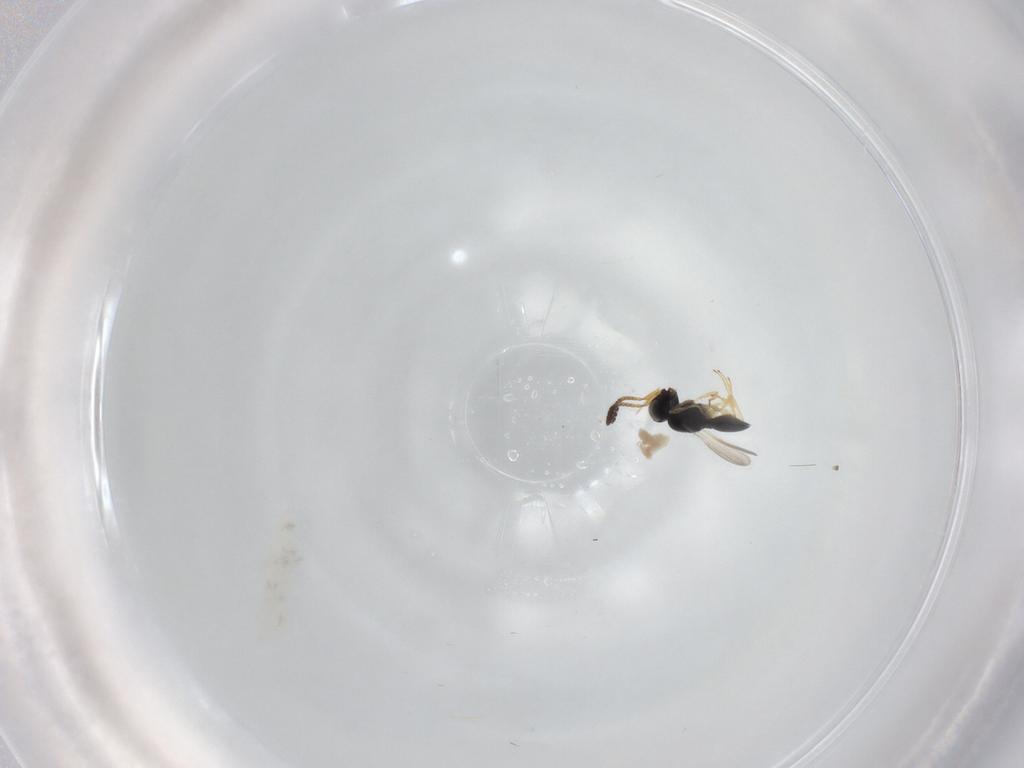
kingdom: Animalia
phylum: Arthropoda
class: Insecta
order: Hymenoptera
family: Scelionidae
